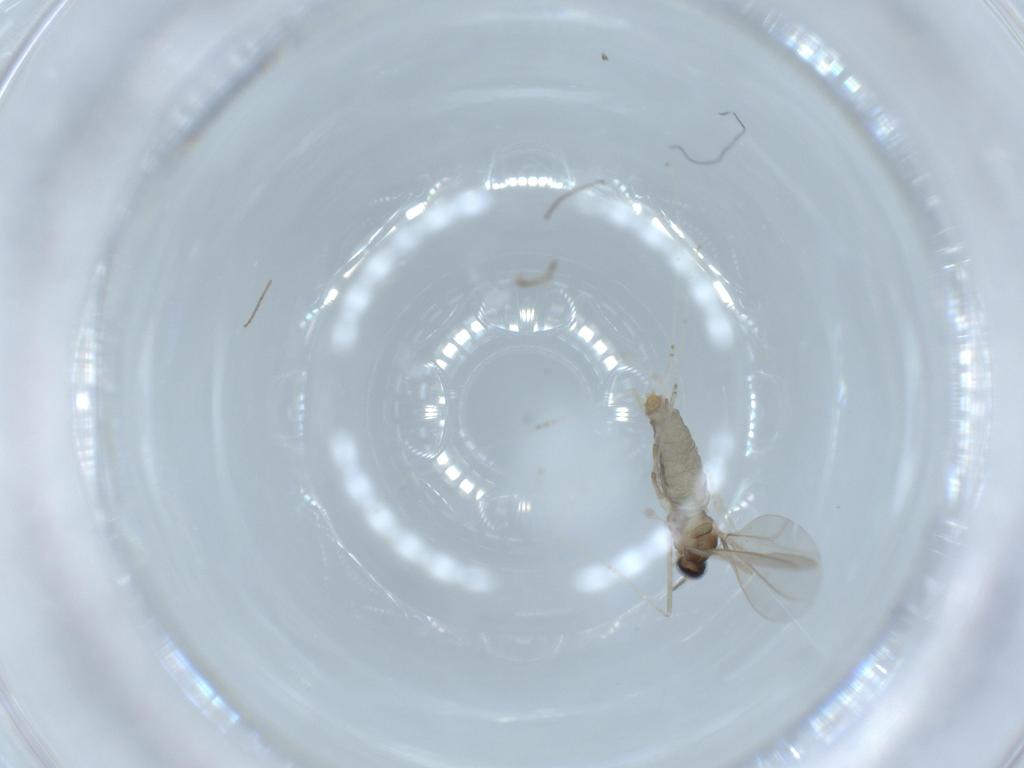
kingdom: Animalia
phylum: Arthropoda
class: Insecta
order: Diptera
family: Cecidomyiidae
